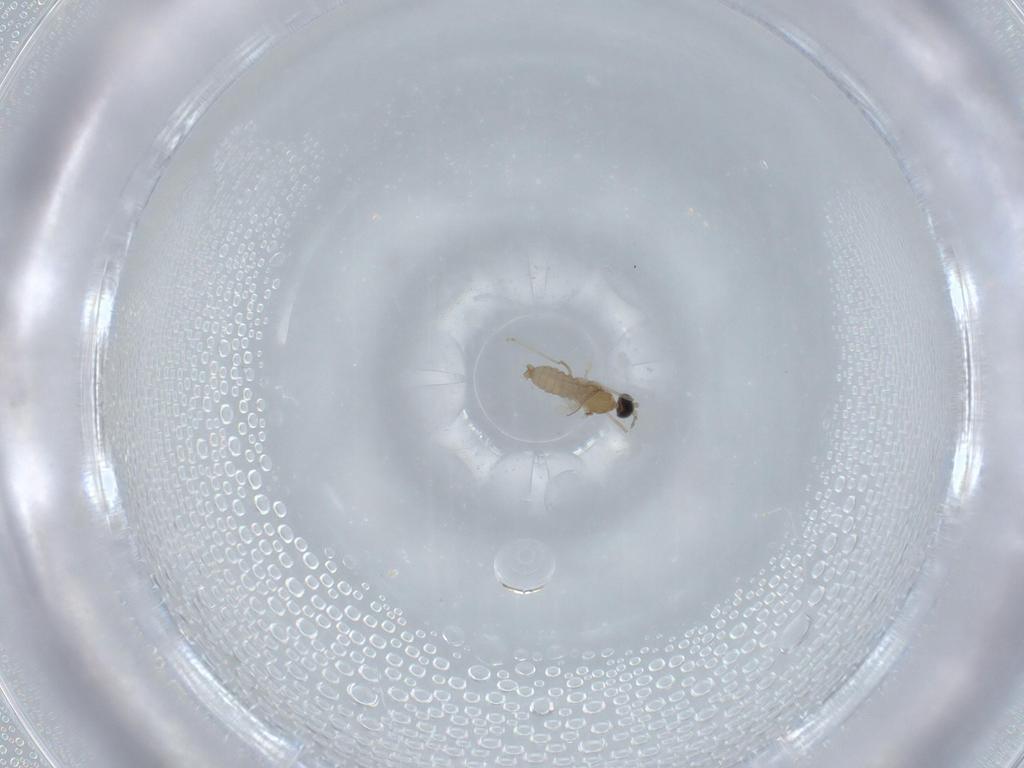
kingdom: Animalia
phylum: Arthropoda
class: Insecta
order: Diptera
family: Cecidomyiidae
